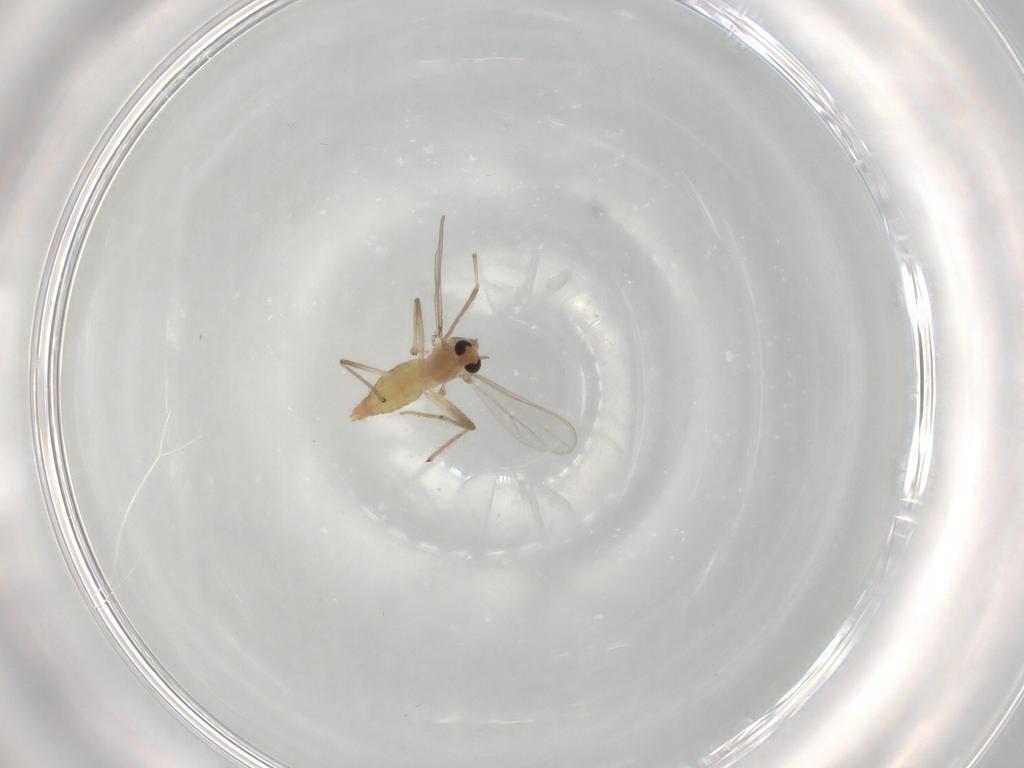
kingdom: Animalia
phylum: Arthropoda
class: Insecta
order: Diptera
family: Chironomidae
